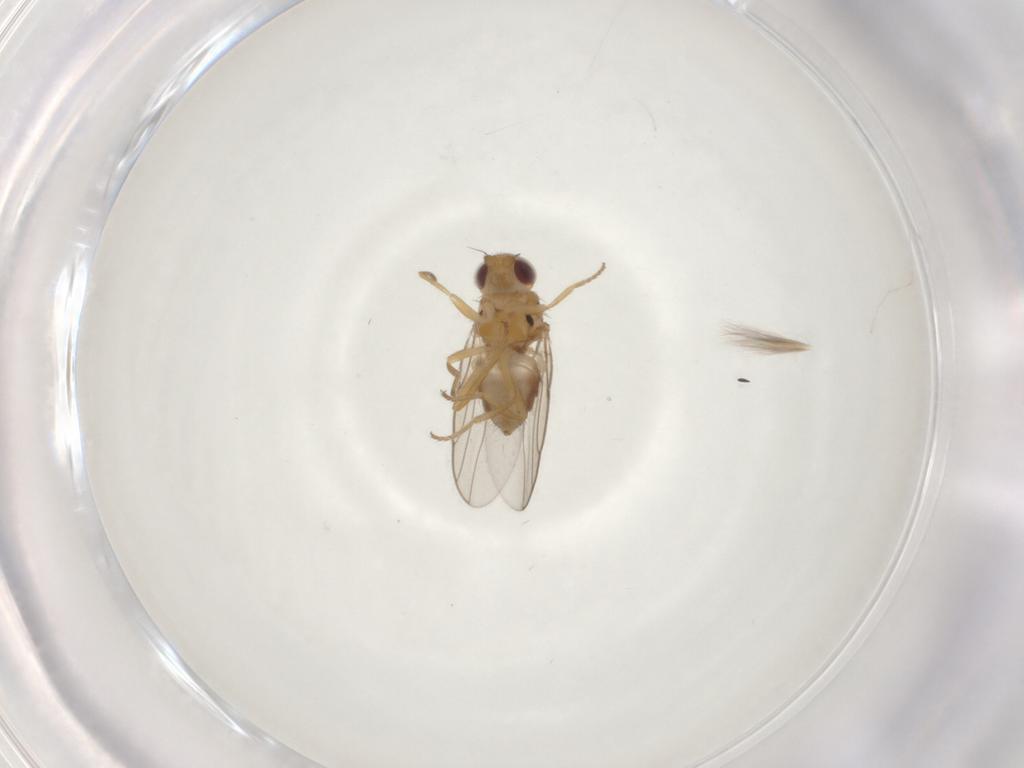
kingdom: Animalia
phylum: Arthropoda
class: Insecta
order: Diptera
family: Chloropidae
